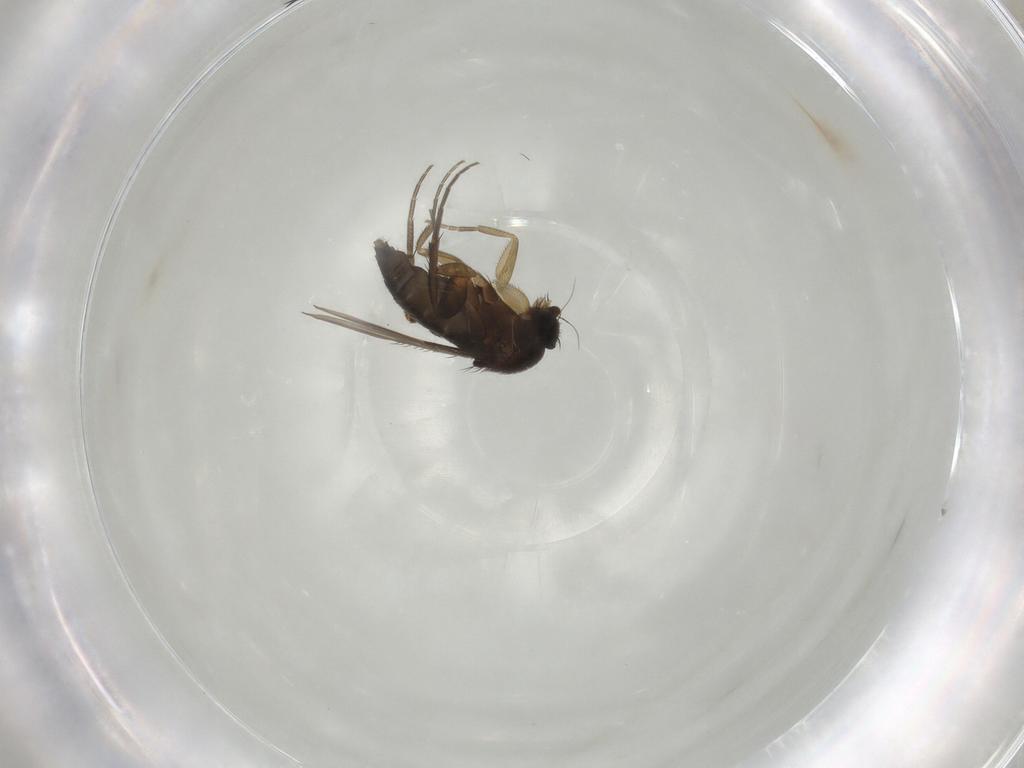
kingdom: Animalia
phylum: Arthropoda
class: Insecta
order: Diptera
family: Phoridae
